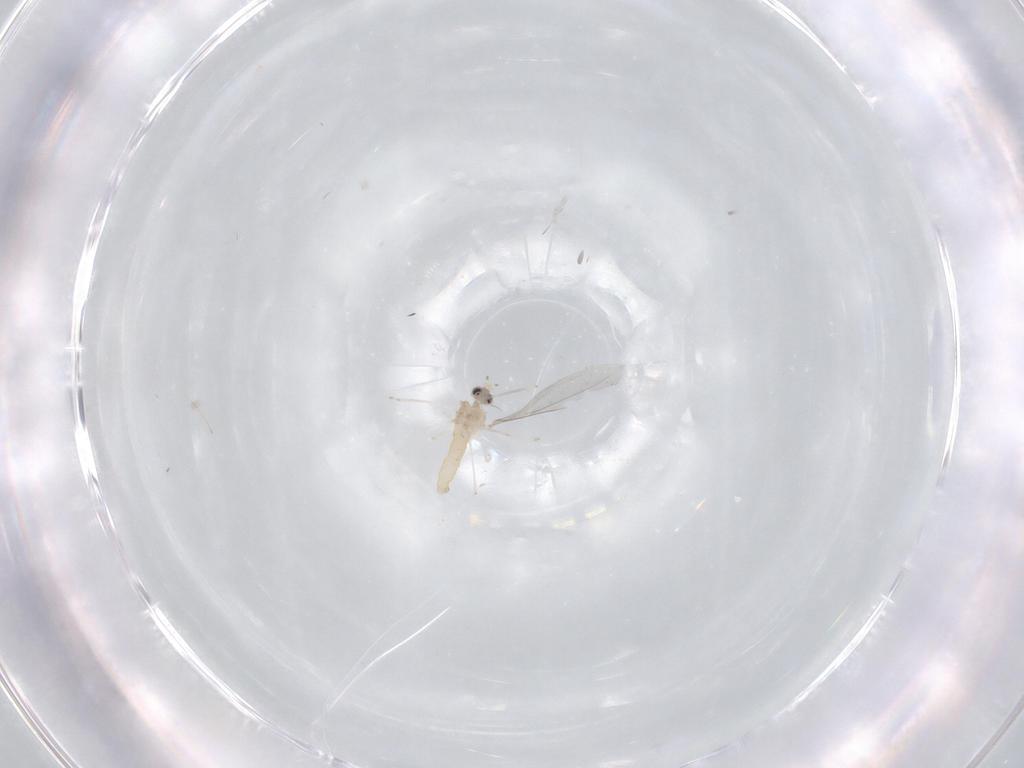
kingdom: Animalia
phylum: Arthropoda
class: Insecta
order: Diptera
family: Cecidomyiidae
